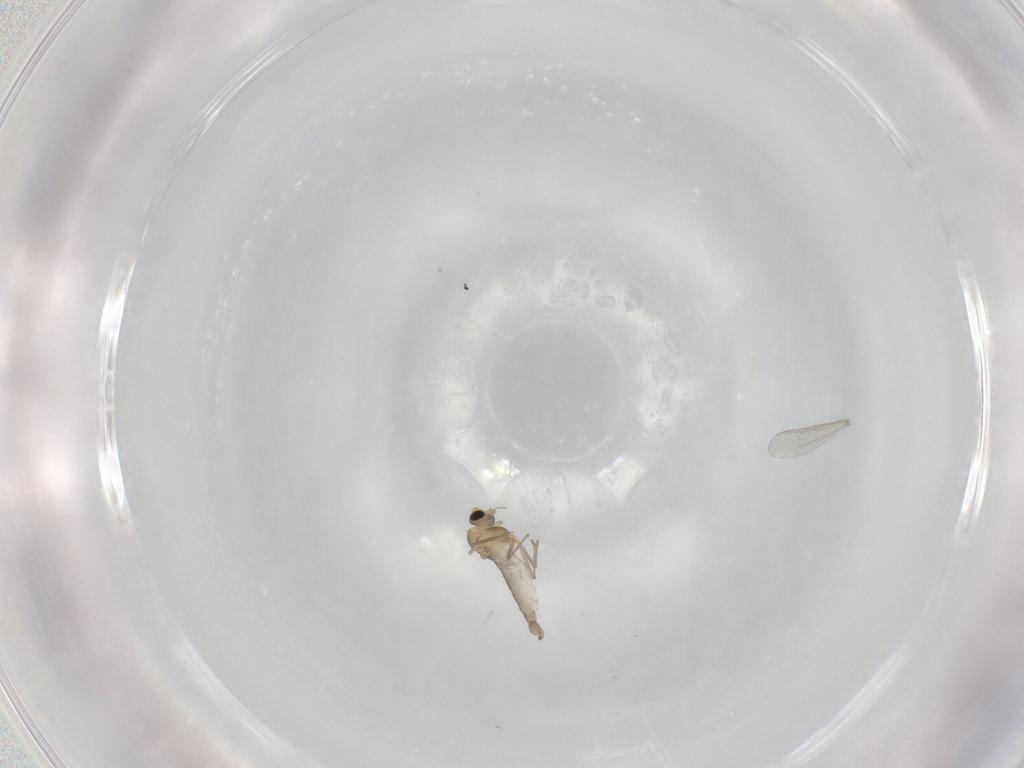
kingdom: Animalia
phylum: Arthropoda
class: Insecta
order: Diptera
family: Chironomidae
